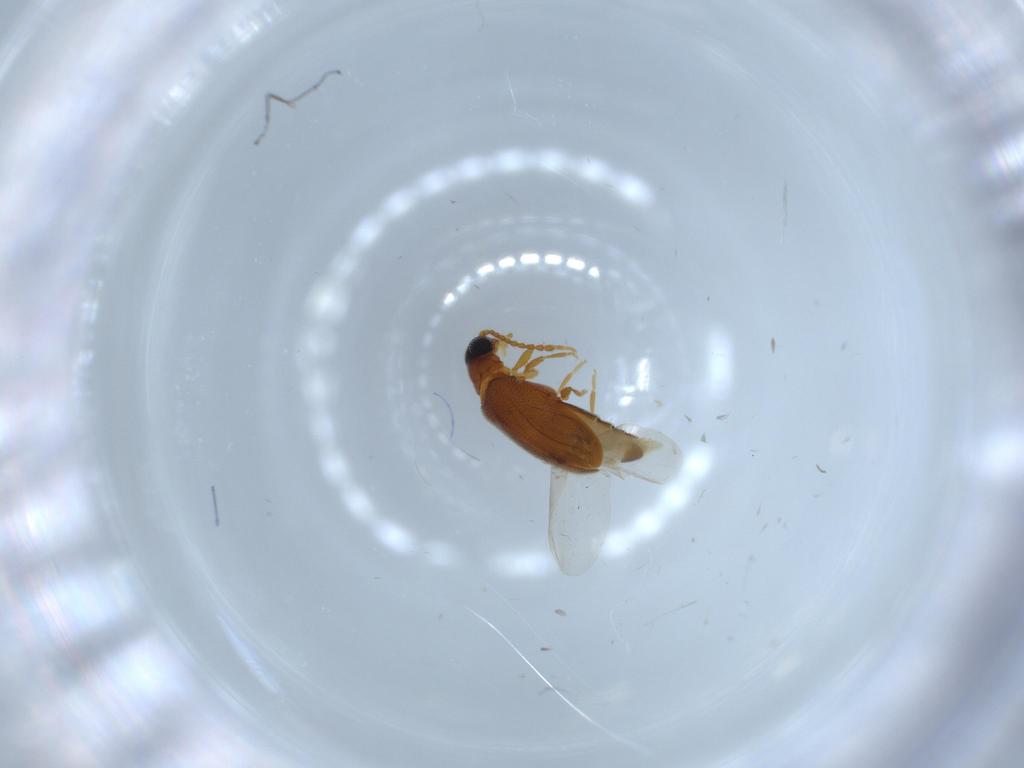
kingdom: Animalia
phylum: Arthropoda
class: Insecta
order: Coleoptera
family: Aderidae
